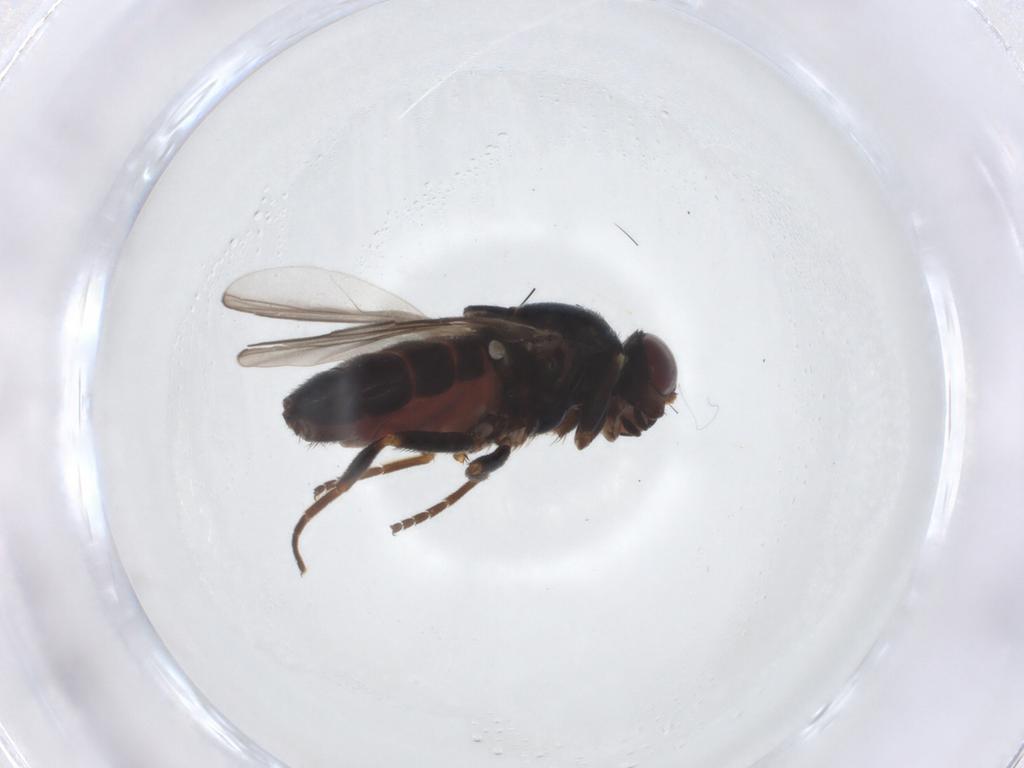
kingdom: Animalia
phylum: Arthropoda
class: Insecta
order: Diptera
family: Chloropidae
